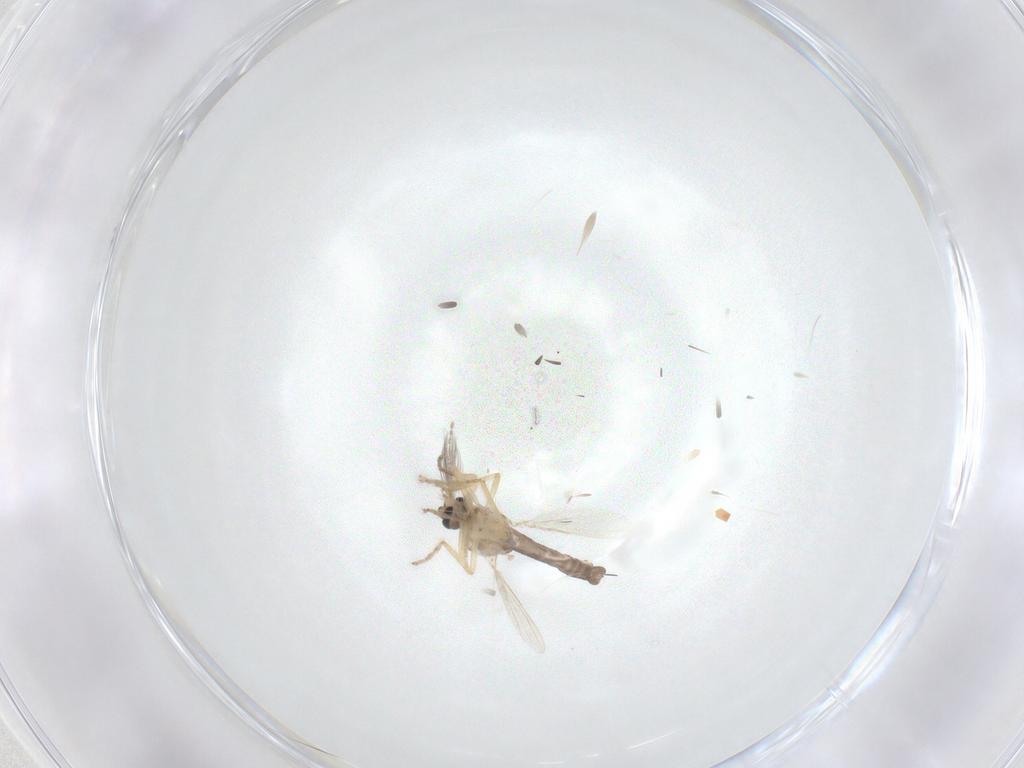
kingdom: Animalia
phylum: Arthropoda
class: Insecta
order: Diptera
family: Ceratopogonidae
